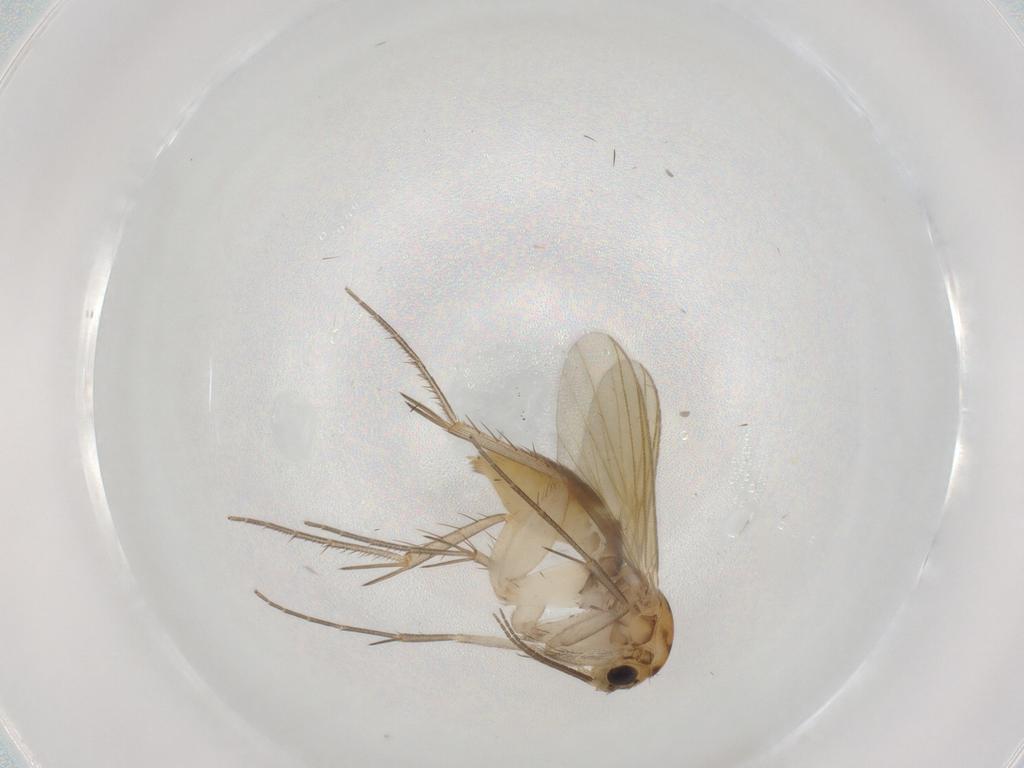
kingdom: Animalia
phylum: Arthropoda
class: Insecta
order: Diptera
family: Mycetophilidae
